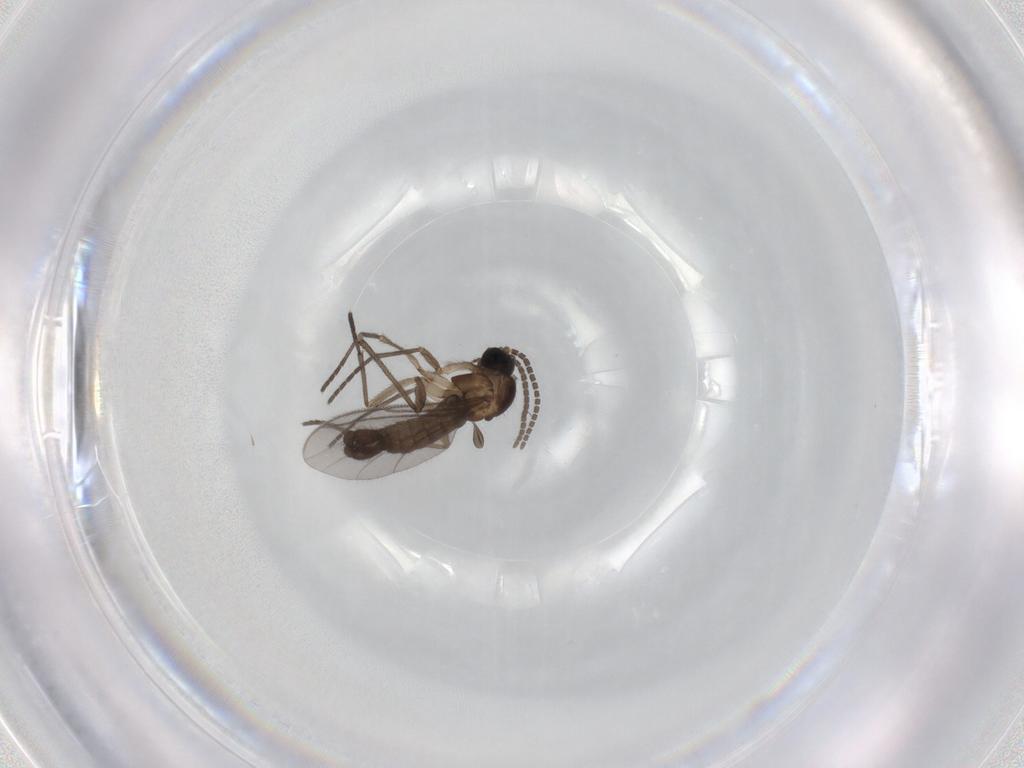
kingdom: Animalia
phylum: Arthropoda
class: Insecta
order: Diptera
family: Sciaridae
